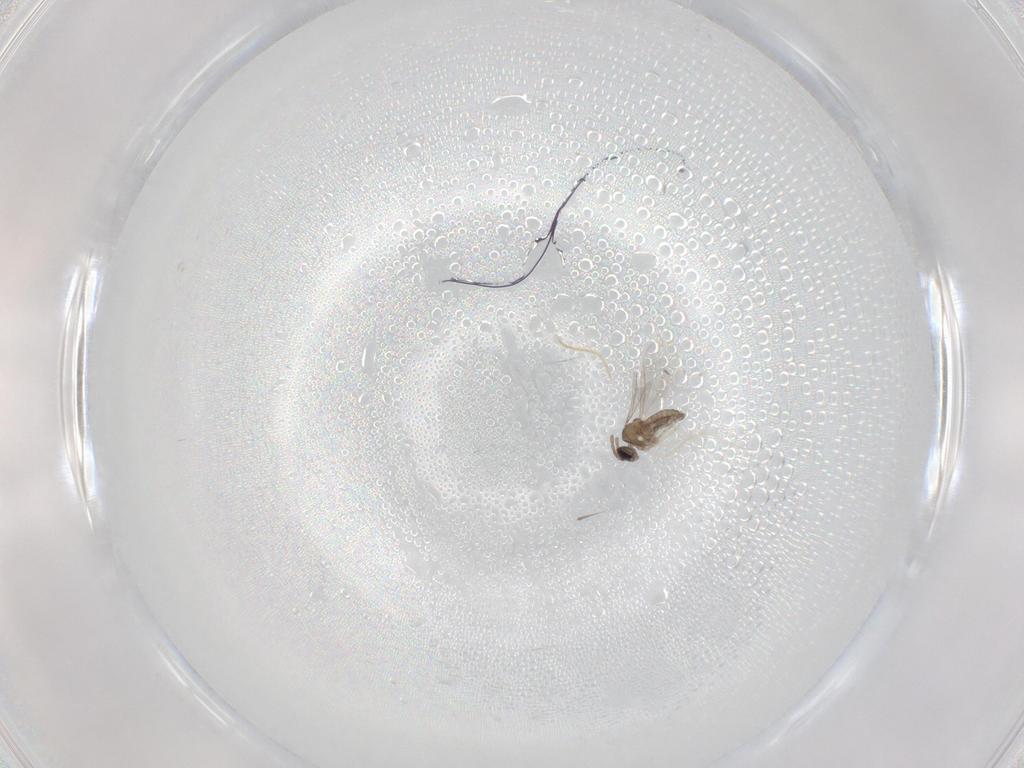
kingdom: Animalia
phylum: Arthropoda
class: Insecta
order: Diptera
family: Cecidomyiidae
